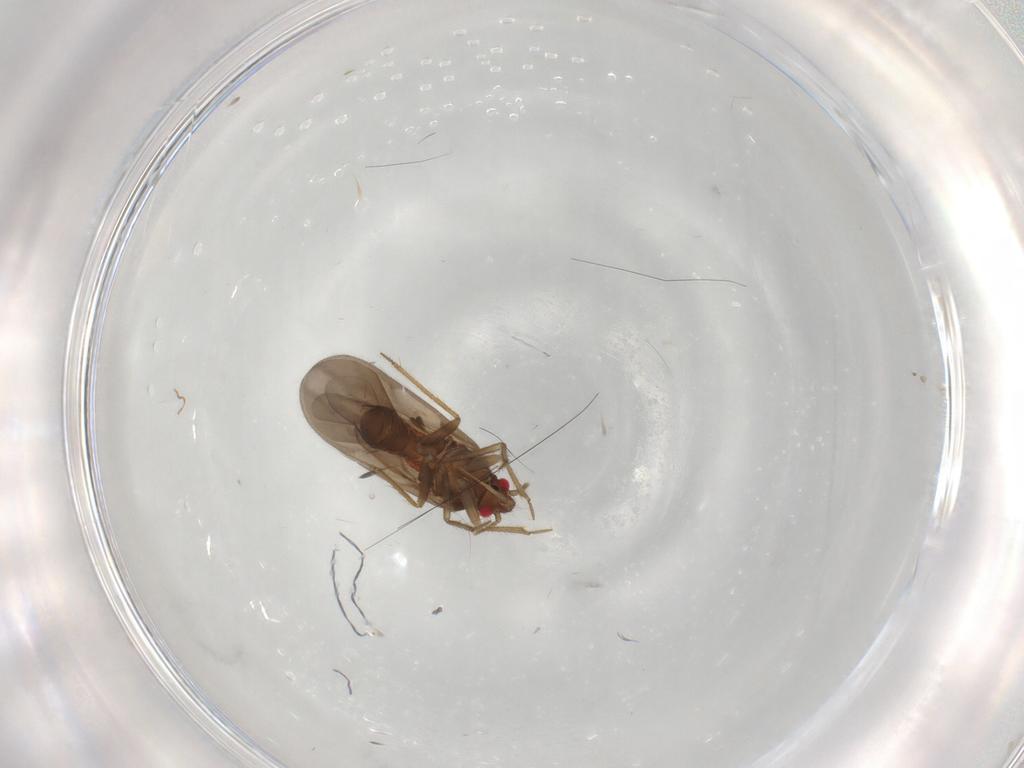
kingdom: Animalia
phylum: Arthropoda
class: Insecta
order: Hemiptera
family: Ceratocombidae
